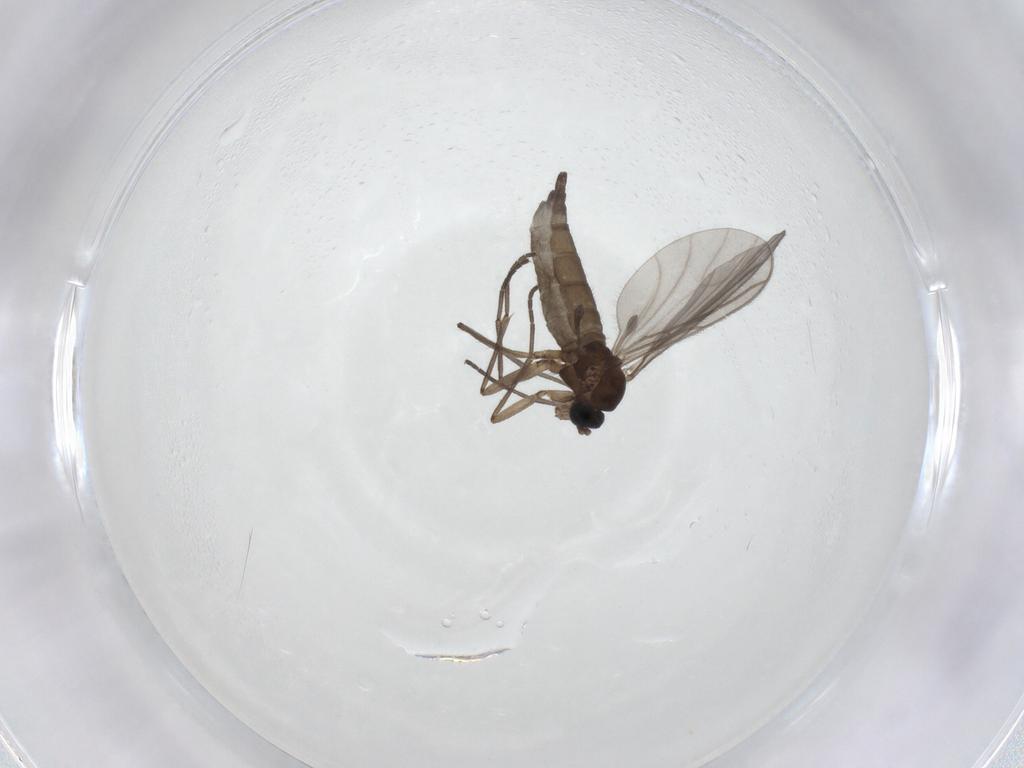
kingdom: Animalia
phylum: Arthropoda
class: Insecta
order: Diptera
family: Sciaridae
